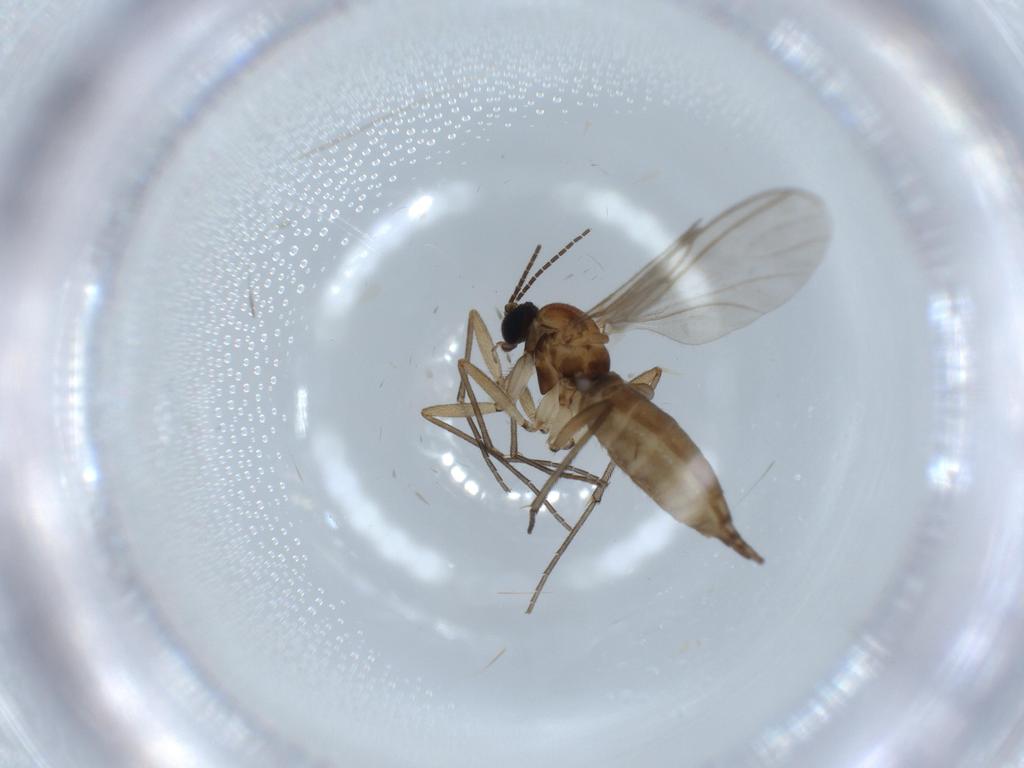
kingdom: Animalia
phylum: Arthropoda
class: Insecta
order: Diptera
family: Sciaridae
